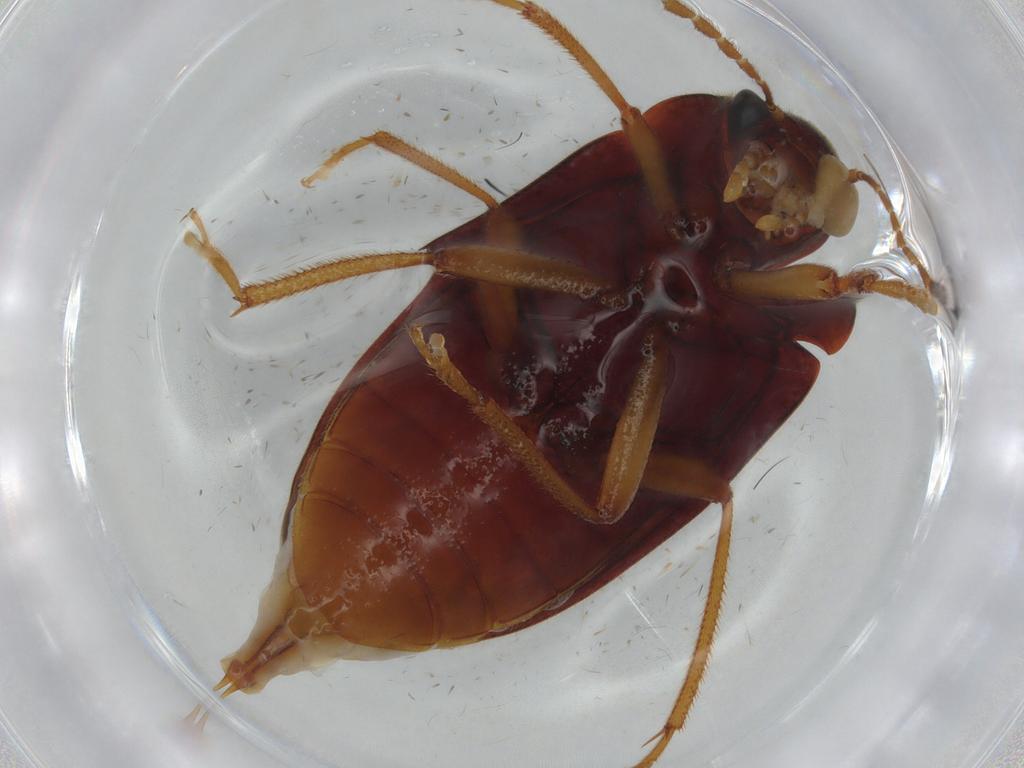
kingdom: Animalia
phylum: Arthropoda
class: Insecta
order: Coleoptera
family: Ptilodactylidae
